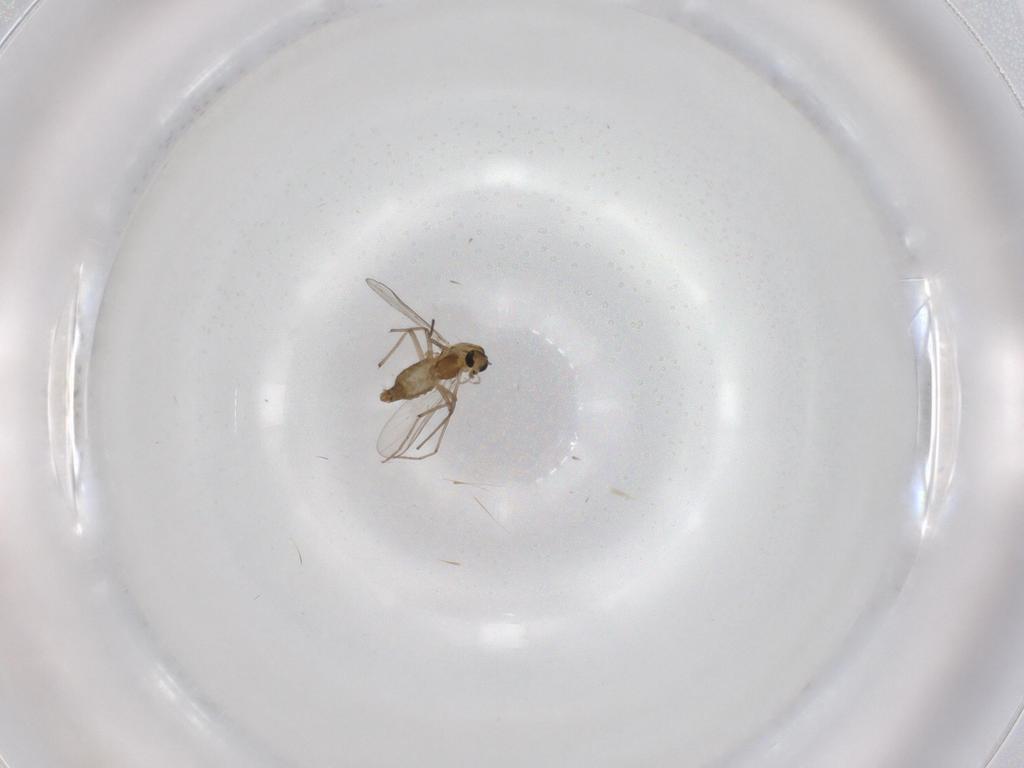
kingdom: Animalia
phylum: Arthropoda
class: Insecta
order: Diptera
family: Chironomidae
